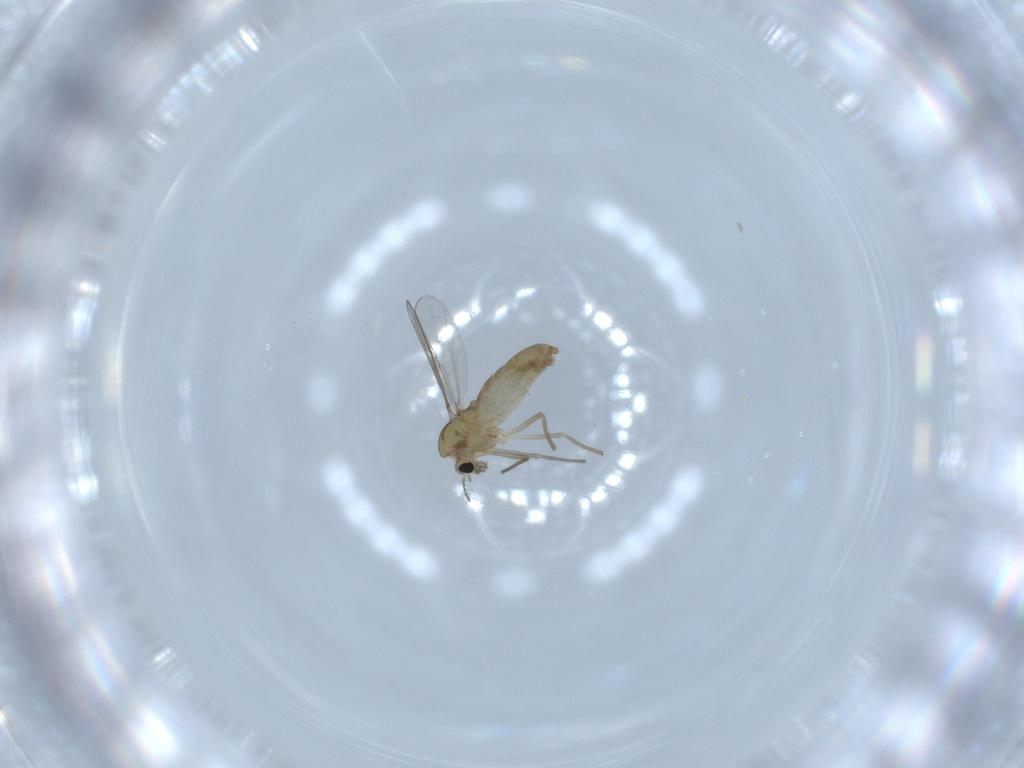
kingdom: Animalia
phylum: Arthropoda
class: Insecta
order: Diptera
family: Chironomidae
